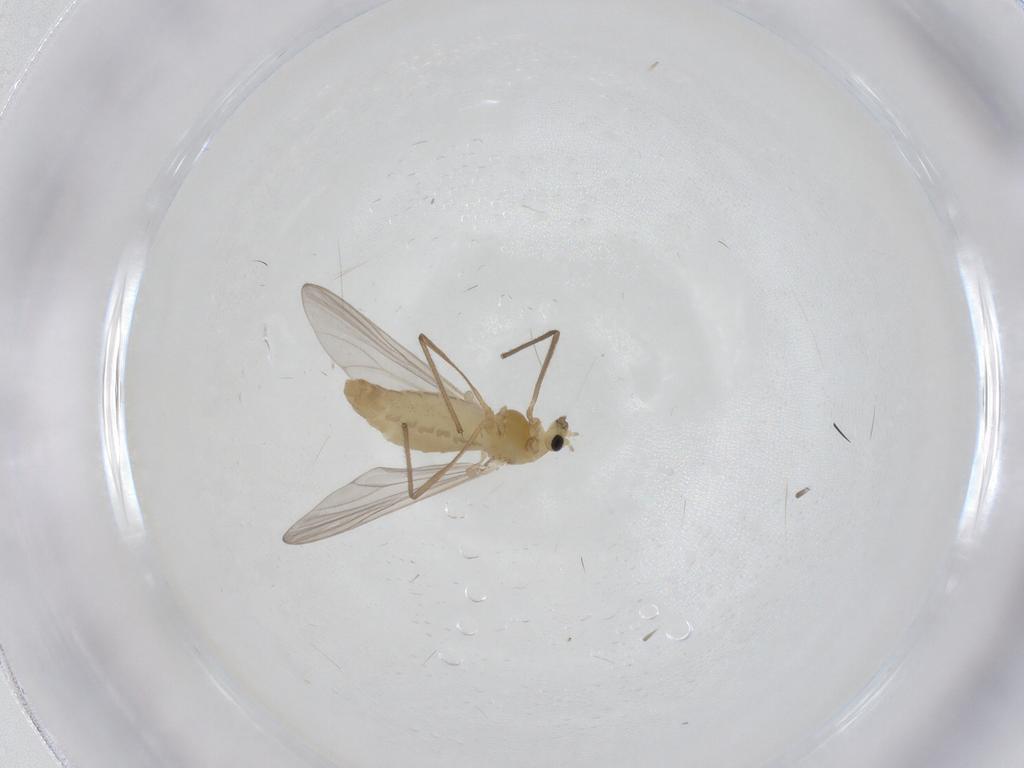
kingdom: Animalia
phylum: Arthropoda
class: Insecta
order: Diptera
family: Chironomidae
